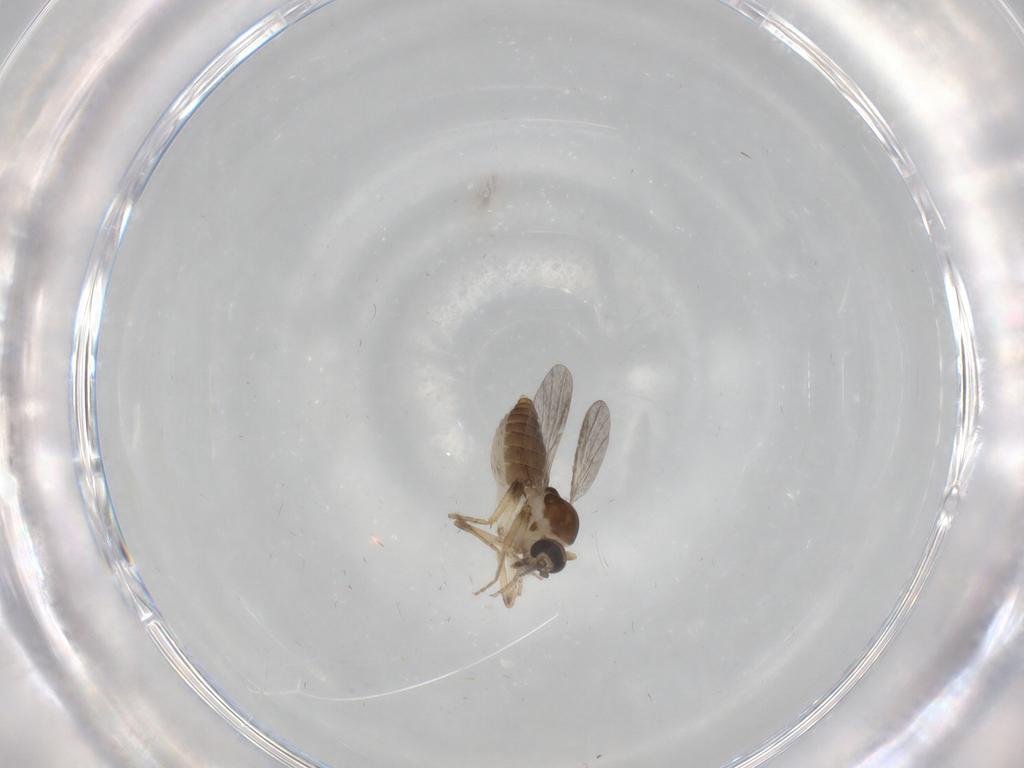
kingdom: Animalia
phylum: Arthropoda
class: Insecta
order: Diptera
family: Ceratopogonidae
